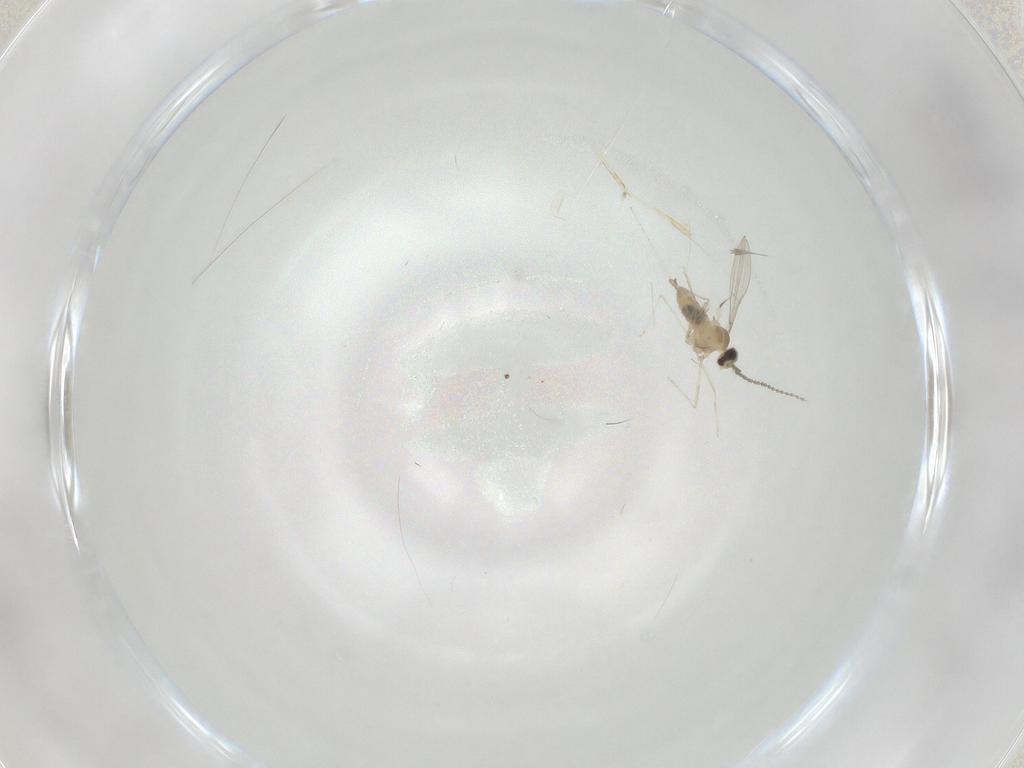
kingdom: Animalia
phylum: Arthropoda
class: Insecta
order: Diptera
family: Cecidomyiidae
